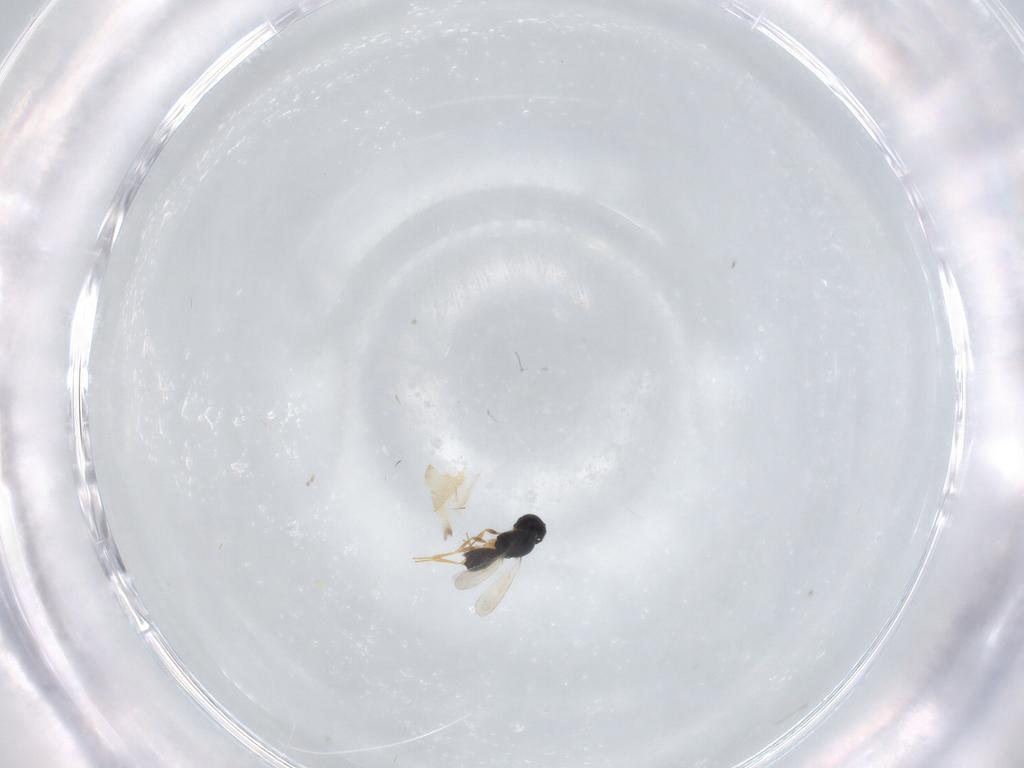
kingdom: Animalia
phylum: Arthropoda
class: Insecta
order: Hymenoptera
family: Scelionidae
